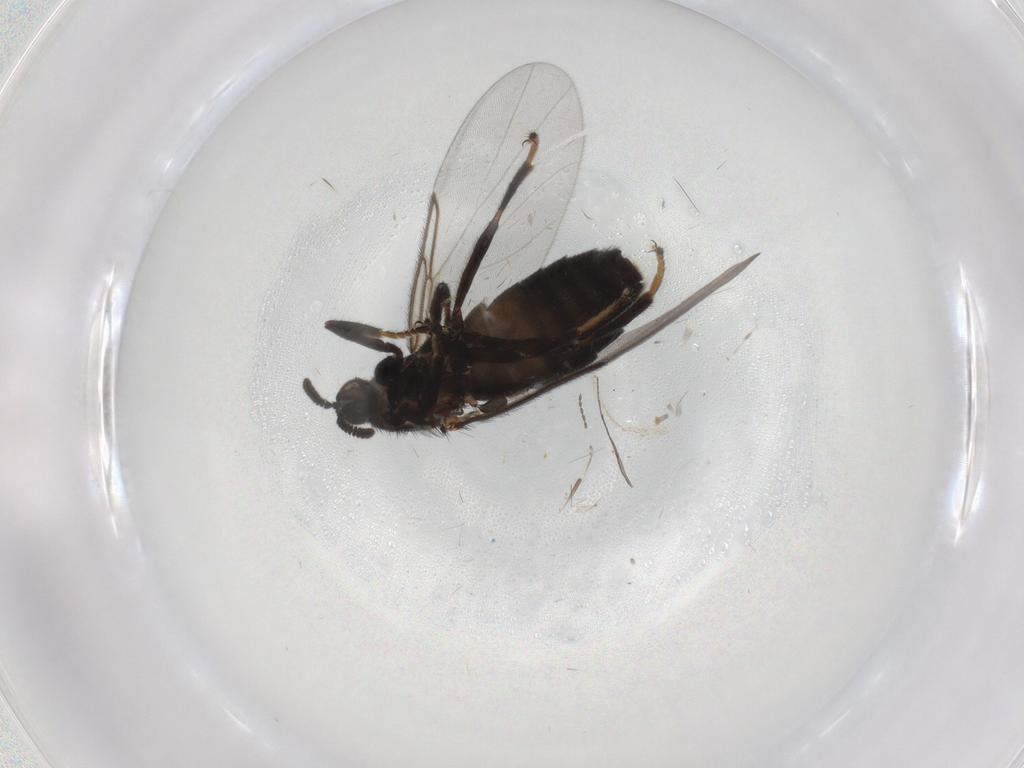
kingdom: Animalia
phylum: Arthropoda
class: Insecta
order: Diptera
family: Scatopsidae
